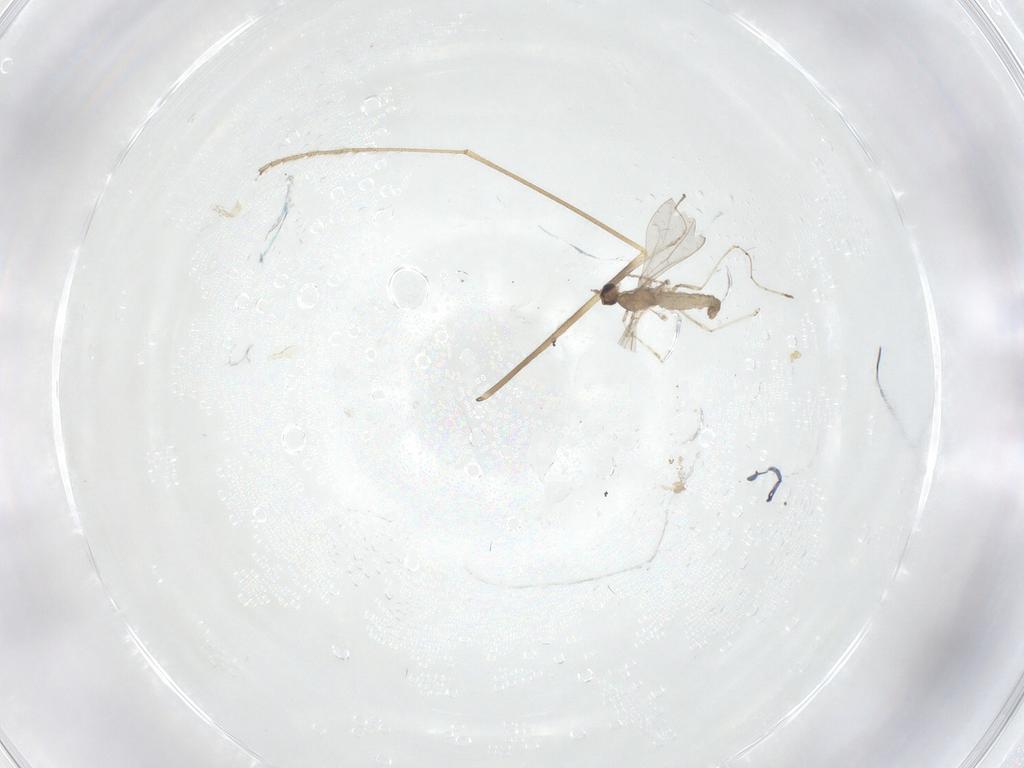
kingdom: Animalia
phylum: Arthropoda
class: Insecta
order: Diptera
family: Cecidomyiidae
